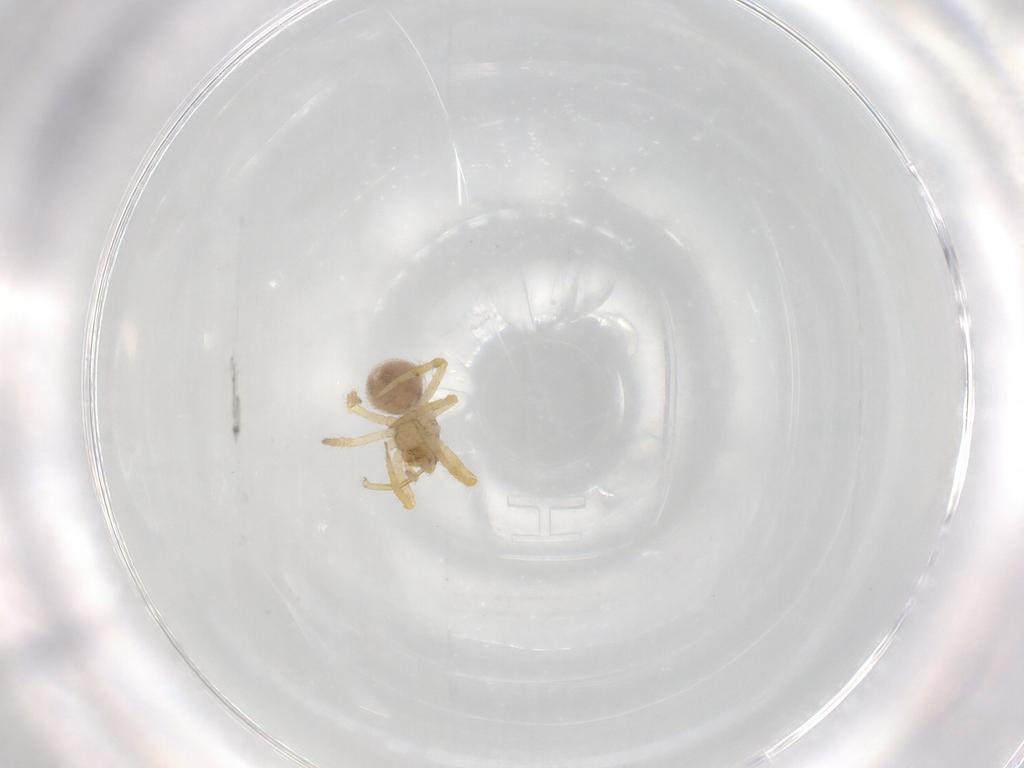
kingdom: Animalia
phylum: Arthropoda
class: Arachnida
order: Araneae
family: Theridiidae
